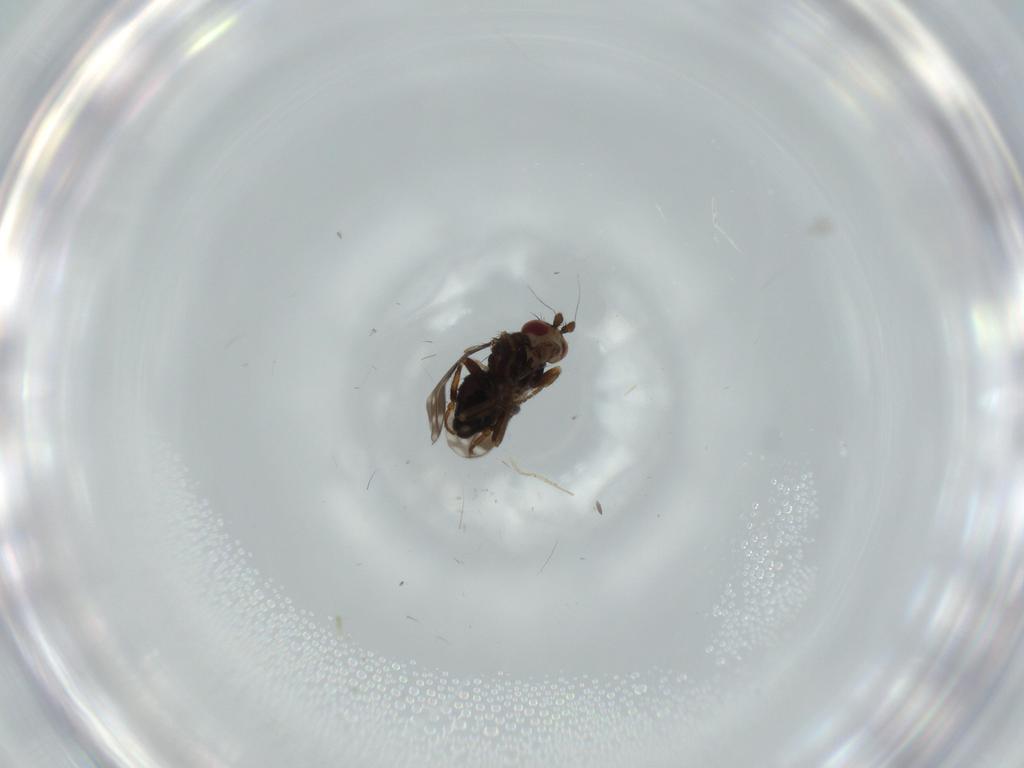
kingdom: Animalia
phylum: Arthropoda
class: Insecta
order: Diptera
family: Sphaeroceridae
